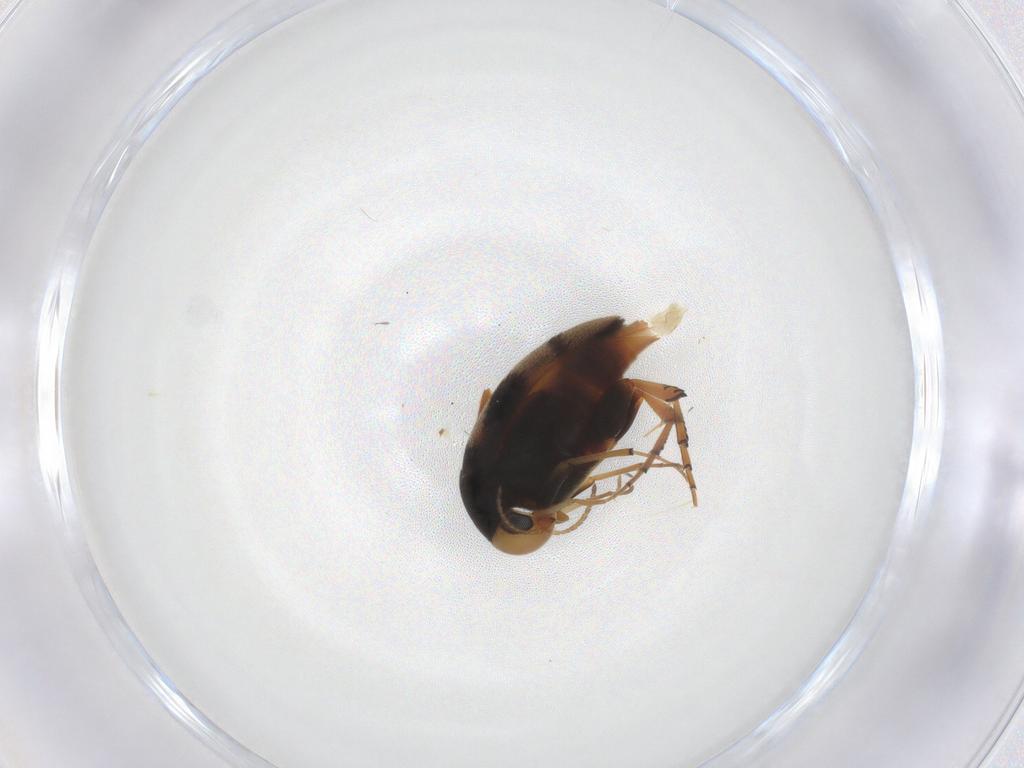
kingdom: Animalia
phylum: Arthropoda
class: Insecta
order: Coleoptera
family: Mordellidae
